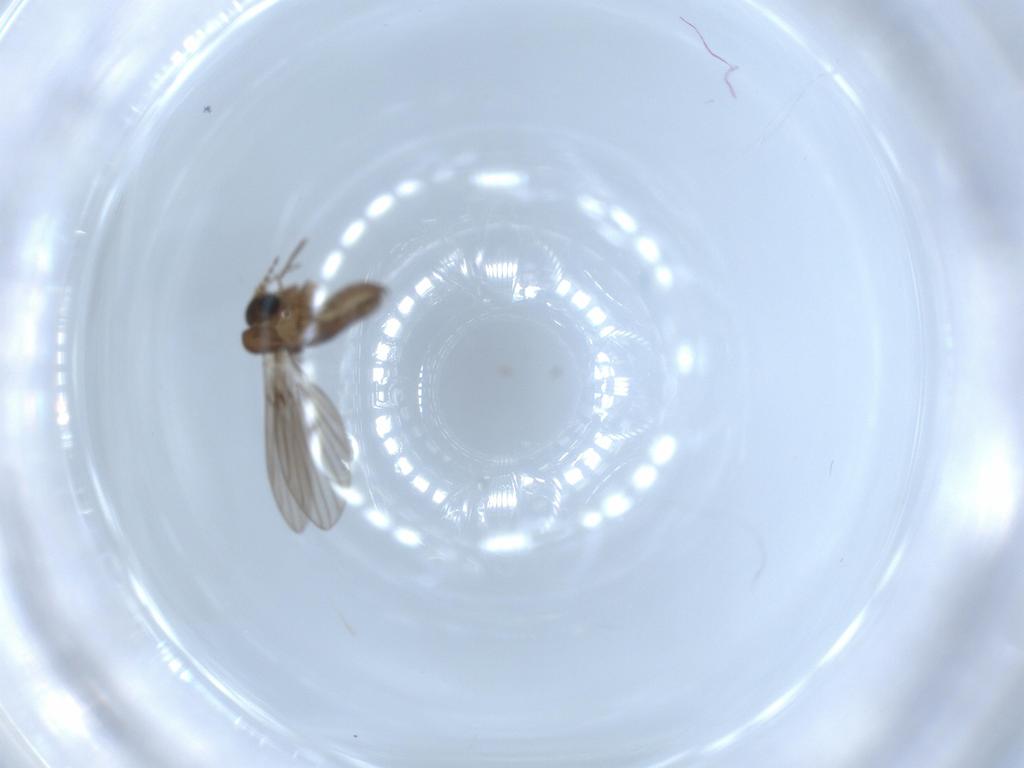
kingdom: Animalia
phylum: Arthropoda
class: Insecta
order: Diptera
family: Psychodidae
